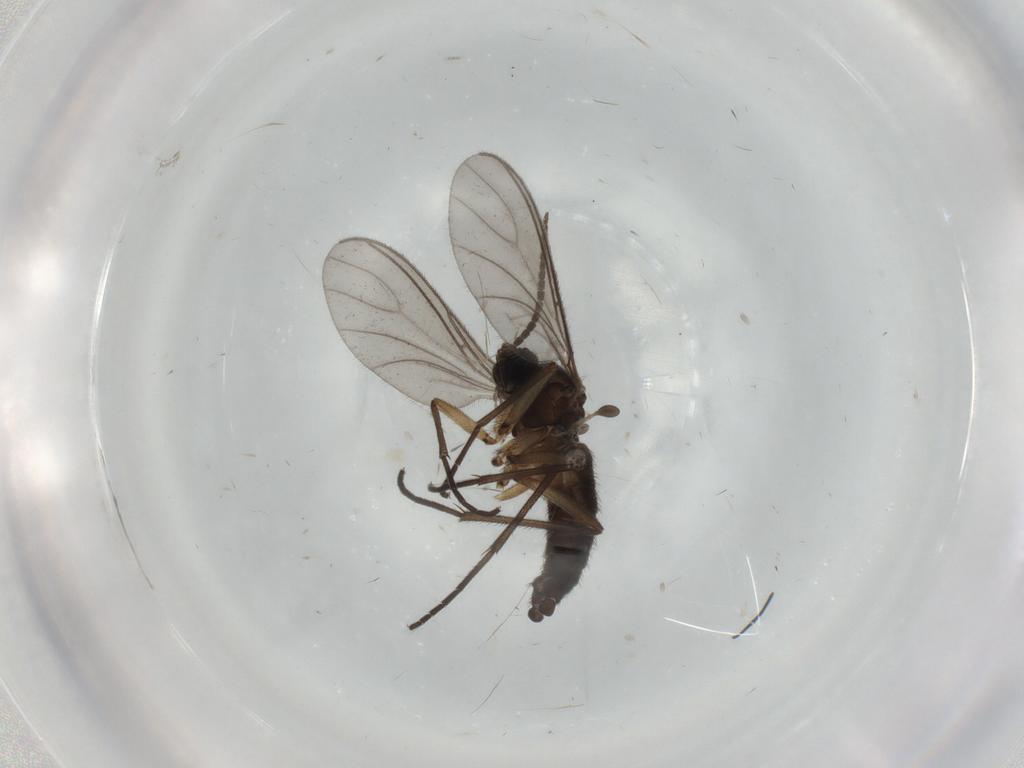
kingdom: Animalia
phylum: Arthropoda
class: Insecta
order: Diptera
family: Sciaridae
